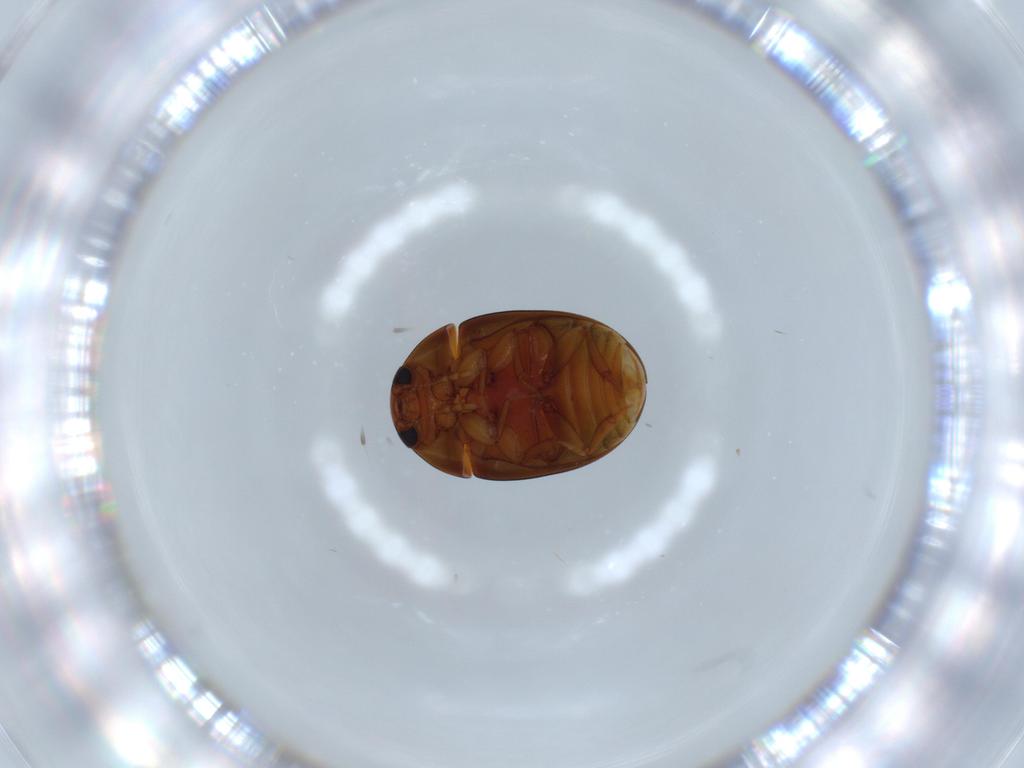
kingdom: Animalia
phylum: Arthropoda
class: Insecta
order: Coleoptera
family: Phalacridae
